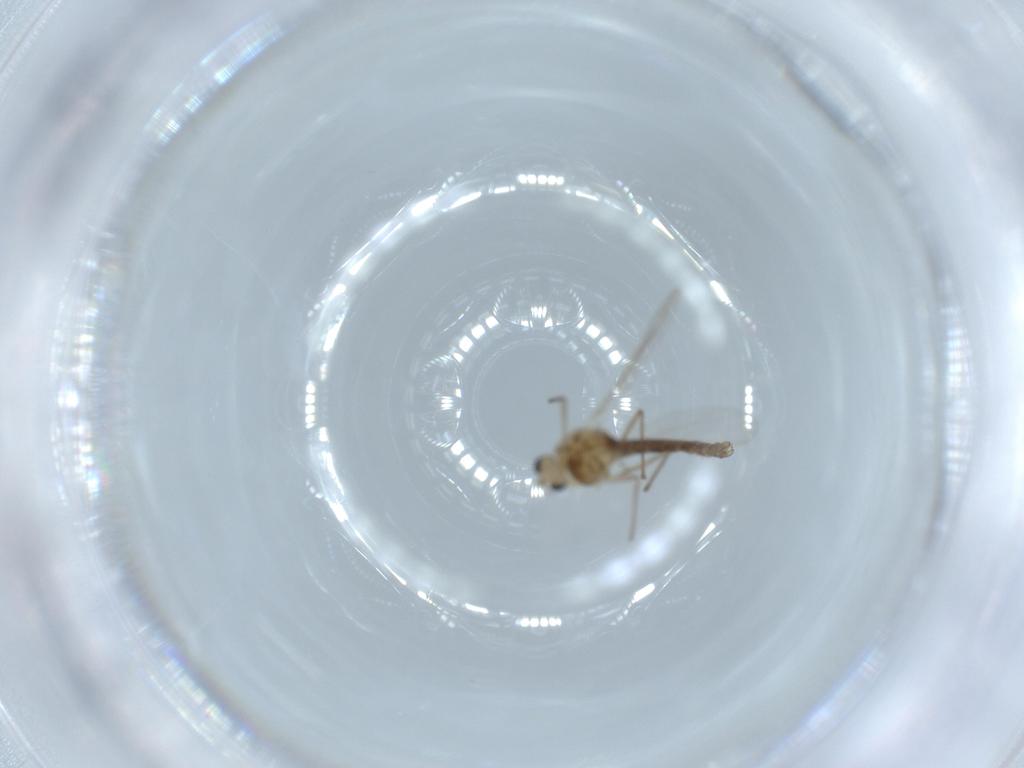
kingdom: Animalia
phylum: Arthropoda
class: Insecta
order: Diptera
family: Chironomidae
